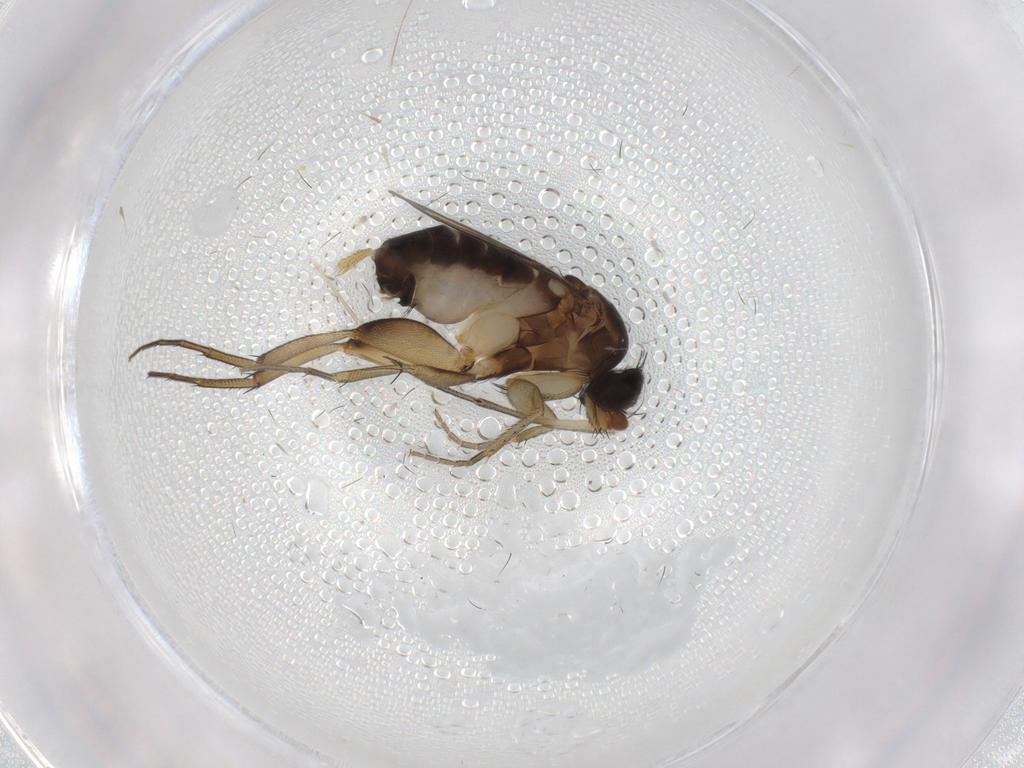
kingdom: Animalia
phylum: Arthropoda
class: Insecta
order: Diptera
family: Phoridae
